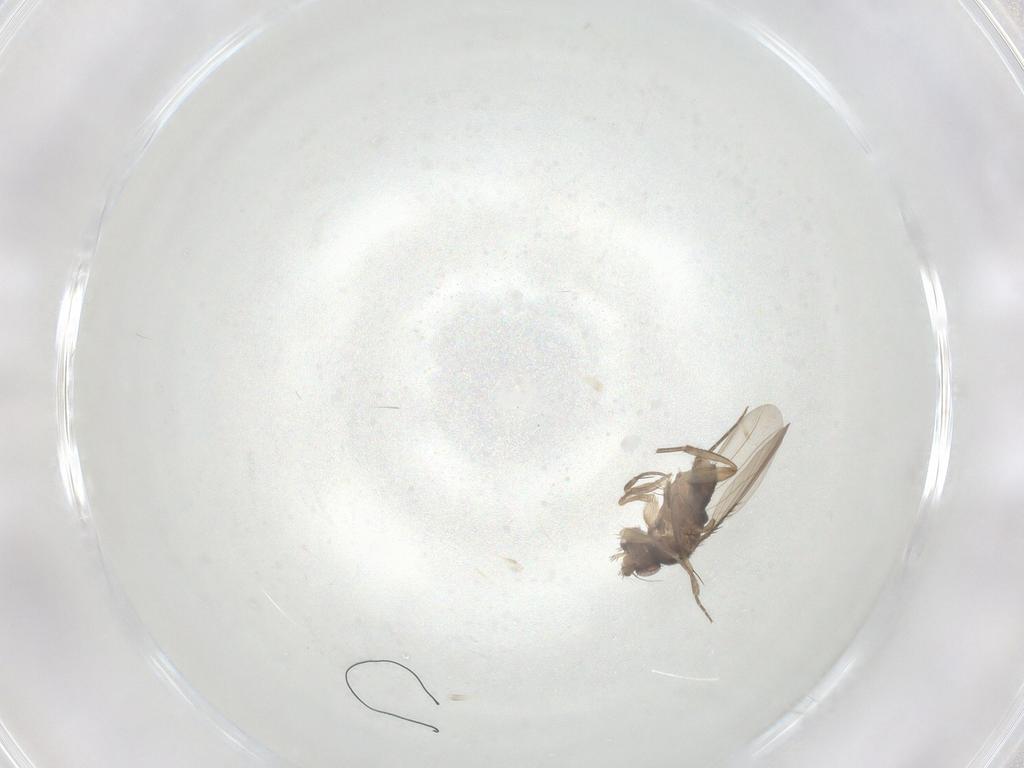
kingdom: Animalia
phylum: Arthropoda
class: Insecta
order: Diptera
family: Phoridae
